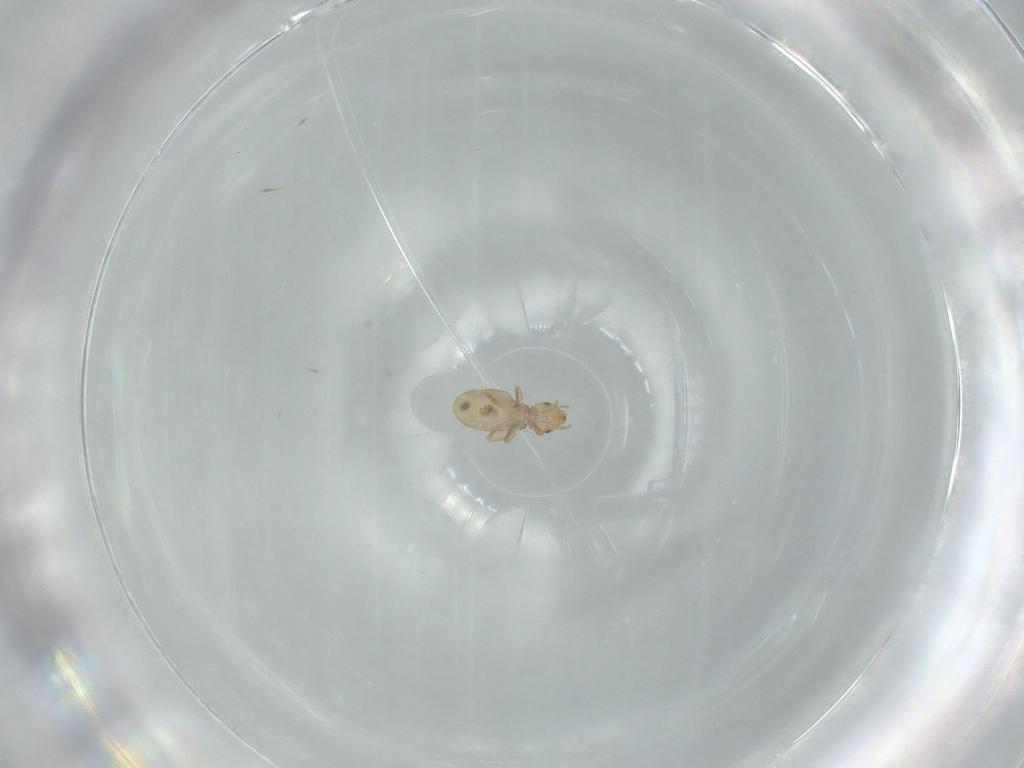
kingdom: Animalia
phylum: Arthropoda
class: Insecta
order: Psocodea
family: Liposcelididae
